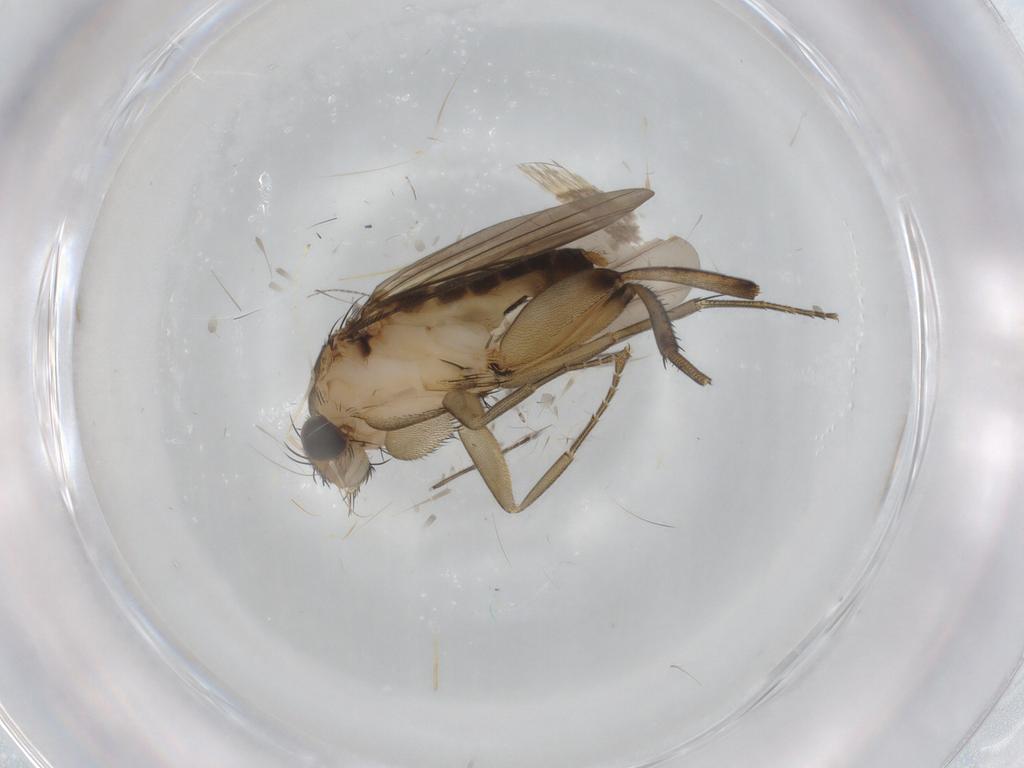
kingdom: Animalia
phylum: Arthropoda
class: Insecta
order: Diptera
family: Phoridae
